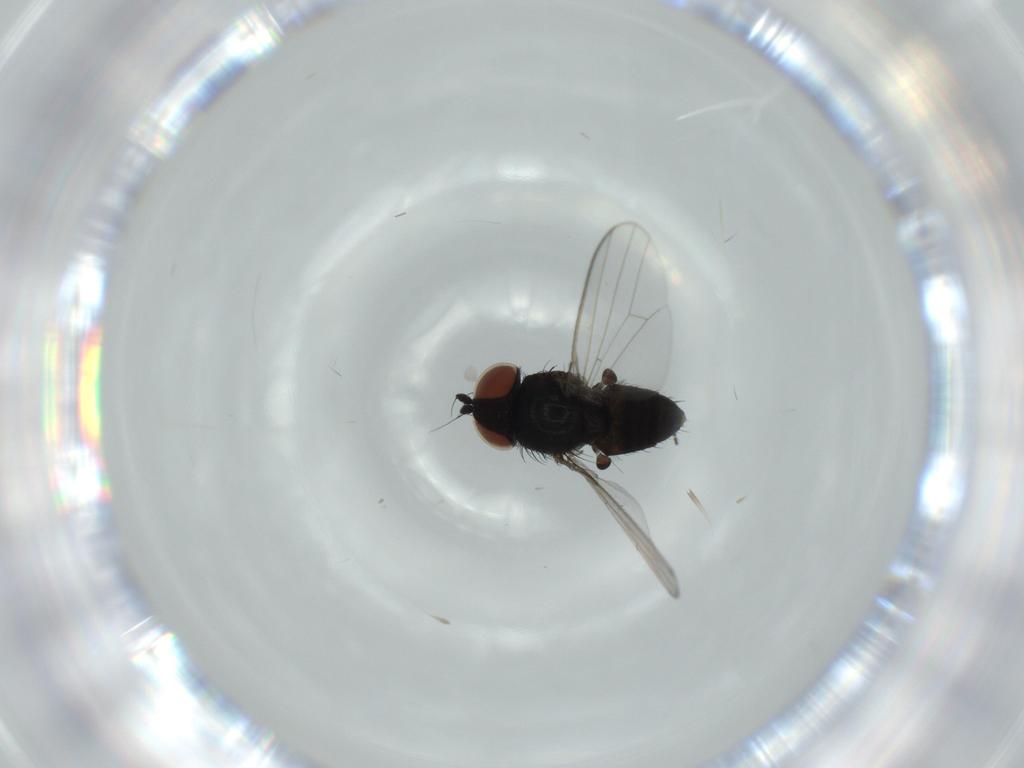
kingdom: Animalia
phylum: Arthropoda
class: Insecta
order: Diptera
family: Milichiidae
